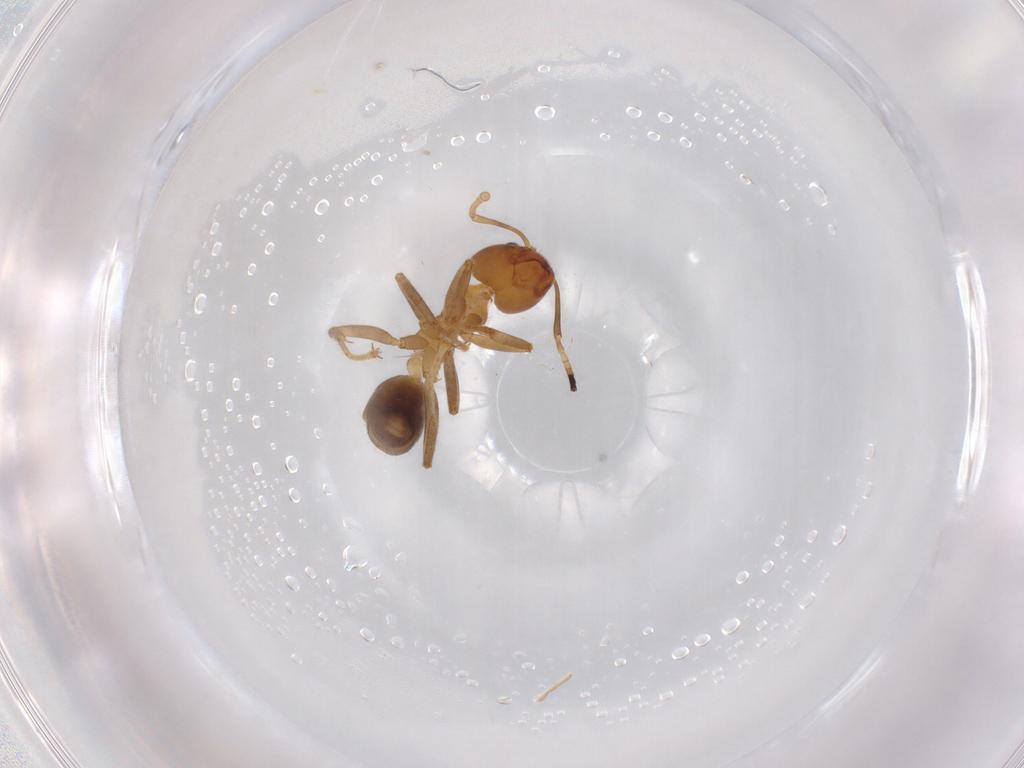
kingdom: Animalia
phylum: Arthropoda
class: Insecta
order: Hymenoptera
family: Formicidae
